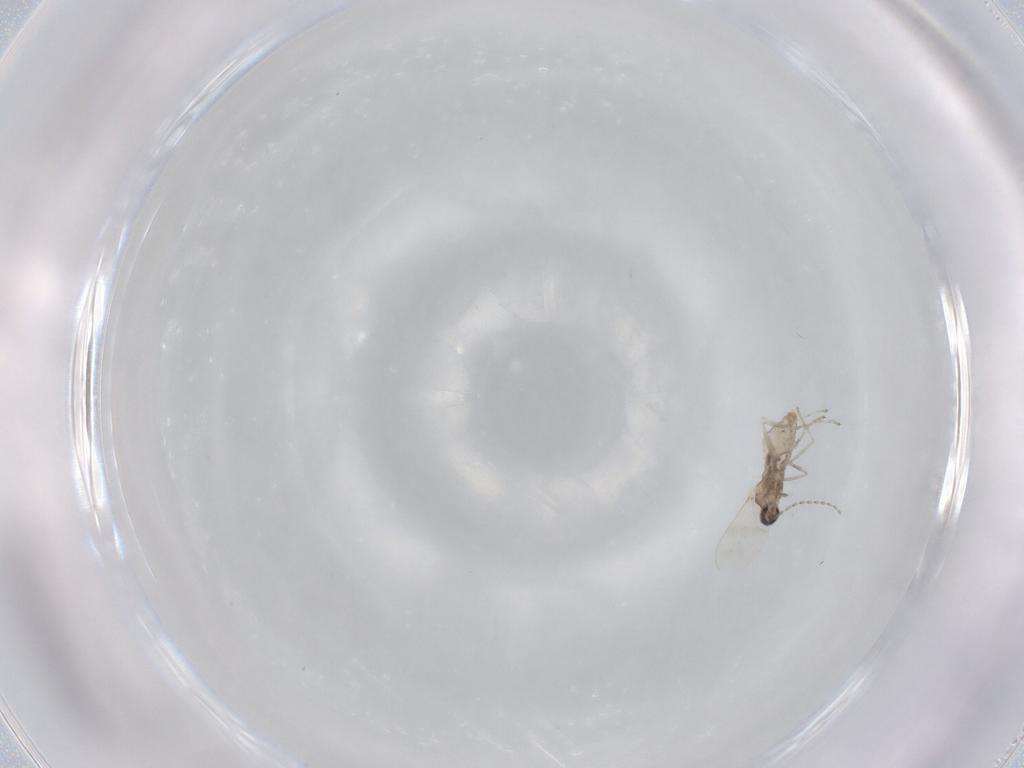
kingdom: Animalia
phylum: Arthropoda
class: Insecta
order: Diptera
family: Cecidomyiidae
